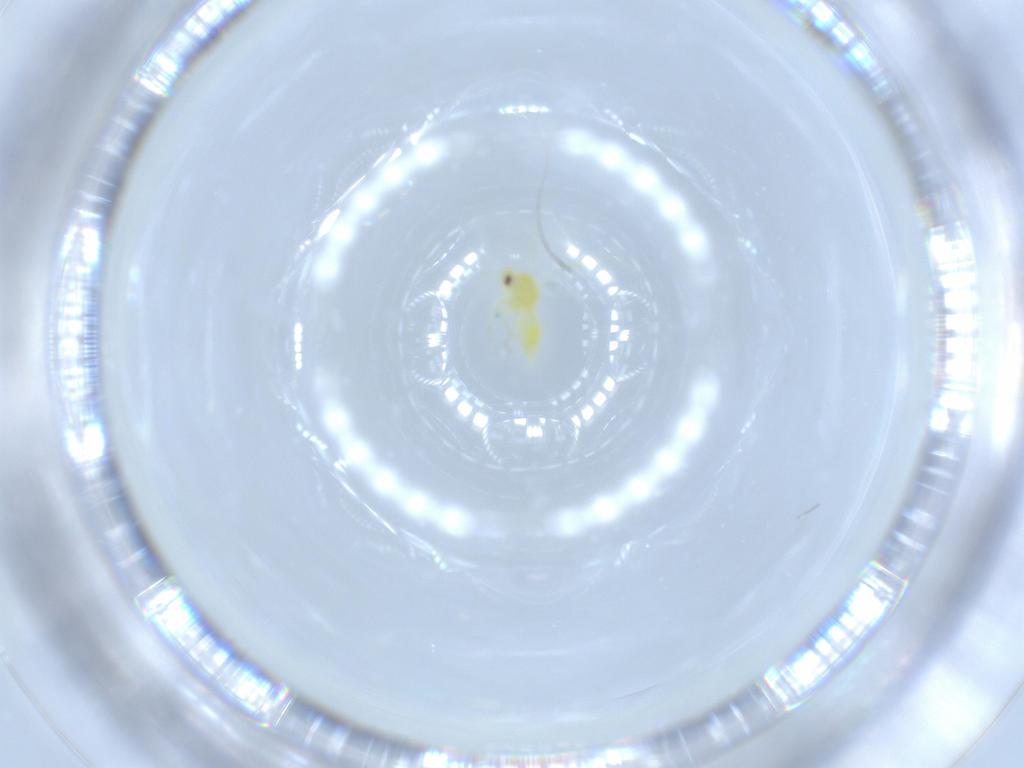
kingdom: Animalia
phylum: Arthropoda
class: Insecta
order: Hemiptera
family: Aleyrodidae
